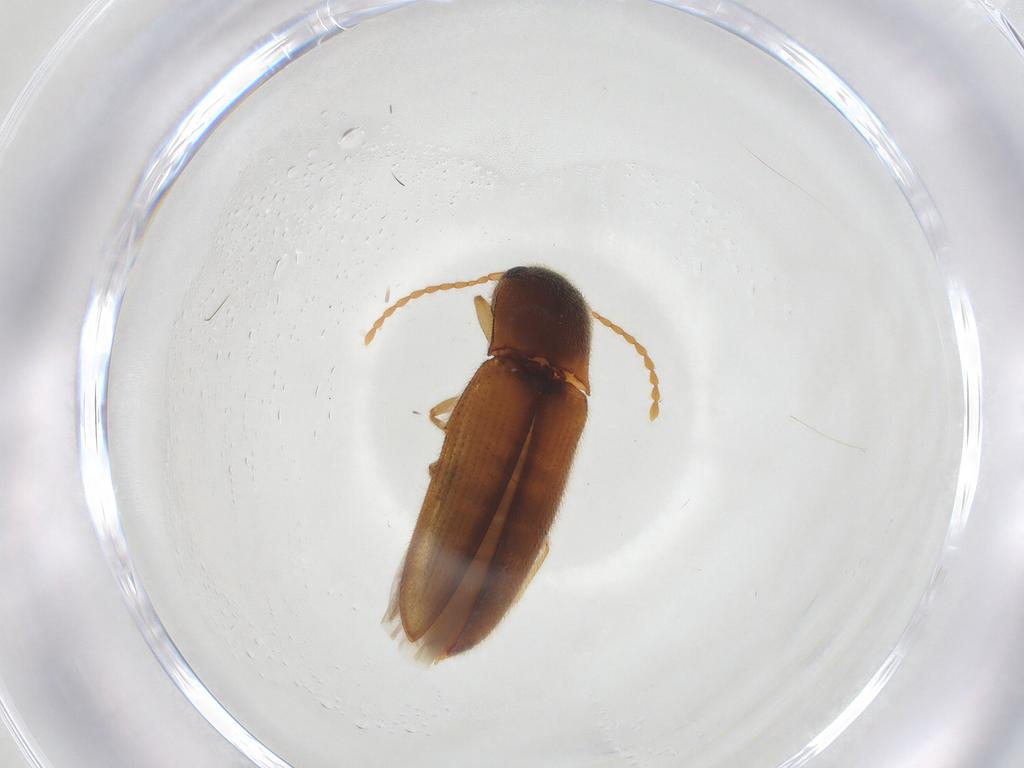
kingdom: Animalia
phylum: Arthropoda
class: Insecta
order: Coleoptera
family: Elateridae
